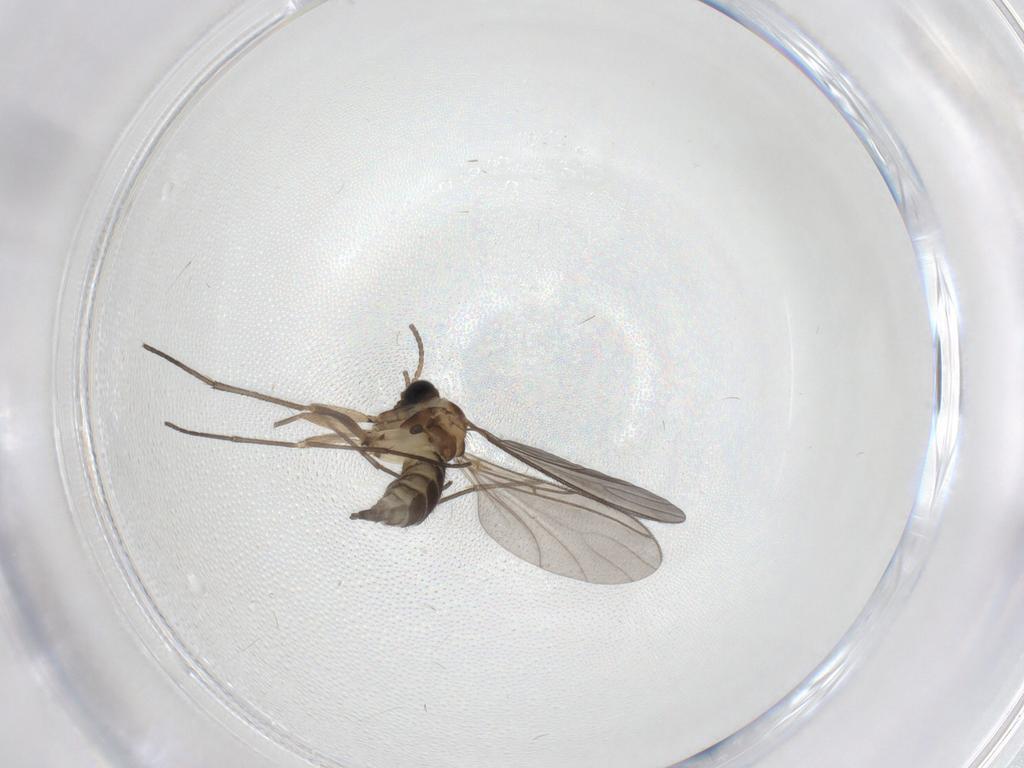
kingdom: Animalia
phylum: Arthropoda
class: Insecta
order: Diptera
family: Sciaridae
